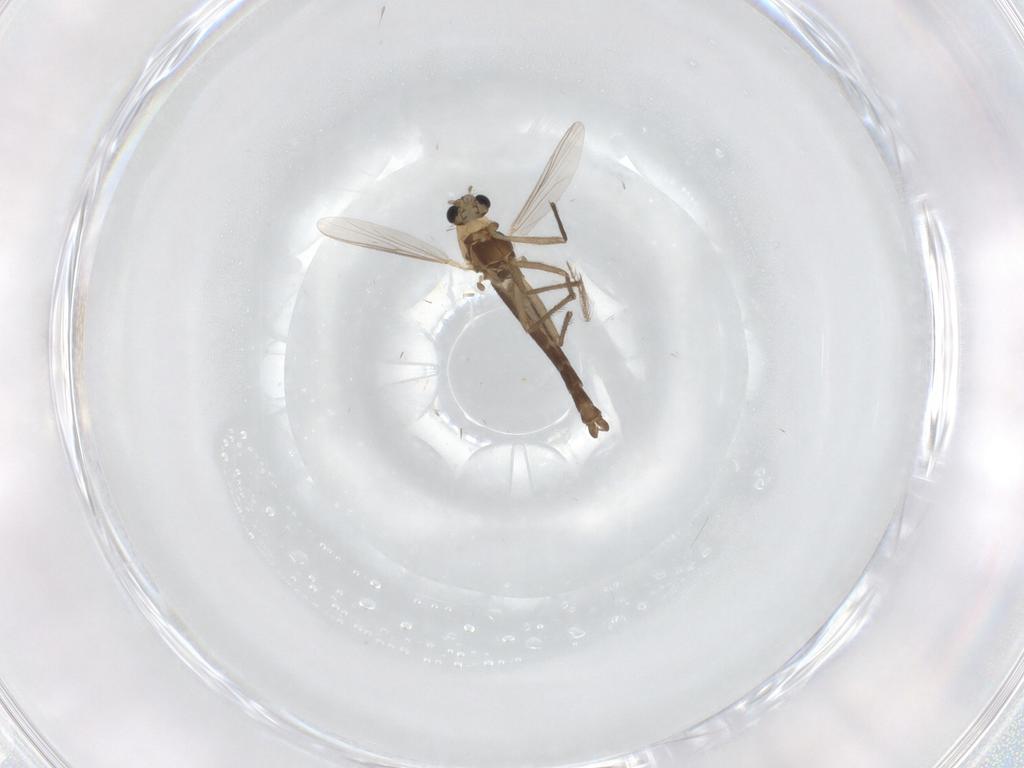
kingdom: Animalia
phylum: Arthropoda
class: Insecta
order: Diptera
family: Chironomidae
